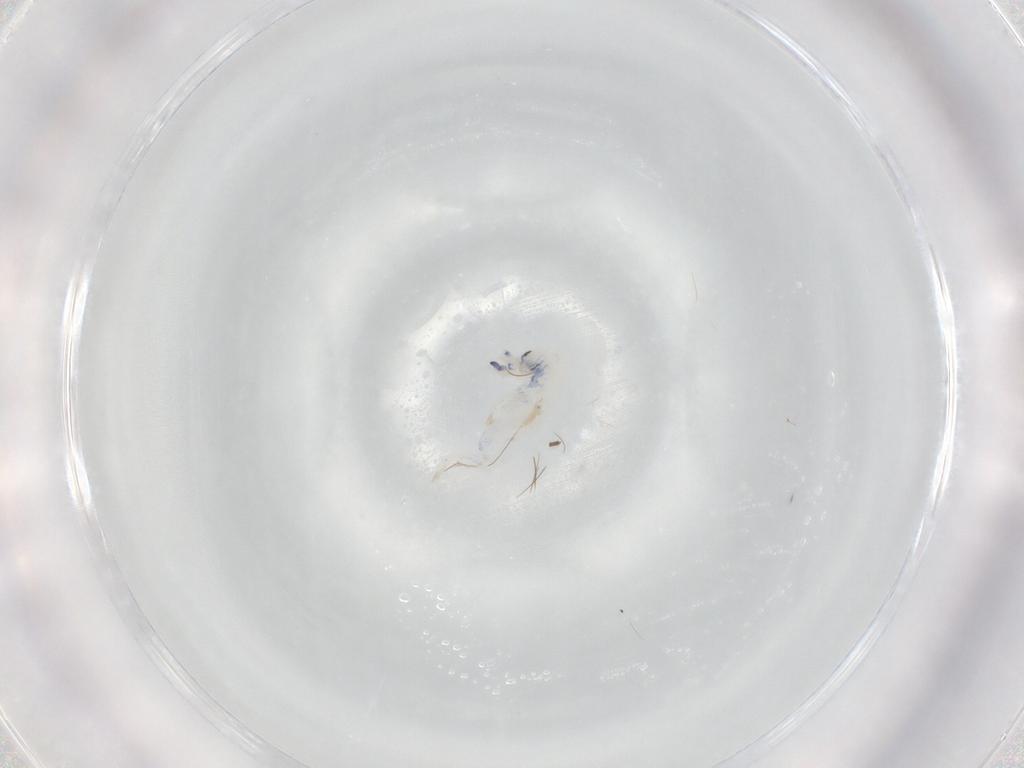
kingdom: Animalia
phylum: Arthropoda
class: Collembola
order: Entomobryomorpha
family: Entomobryidae
